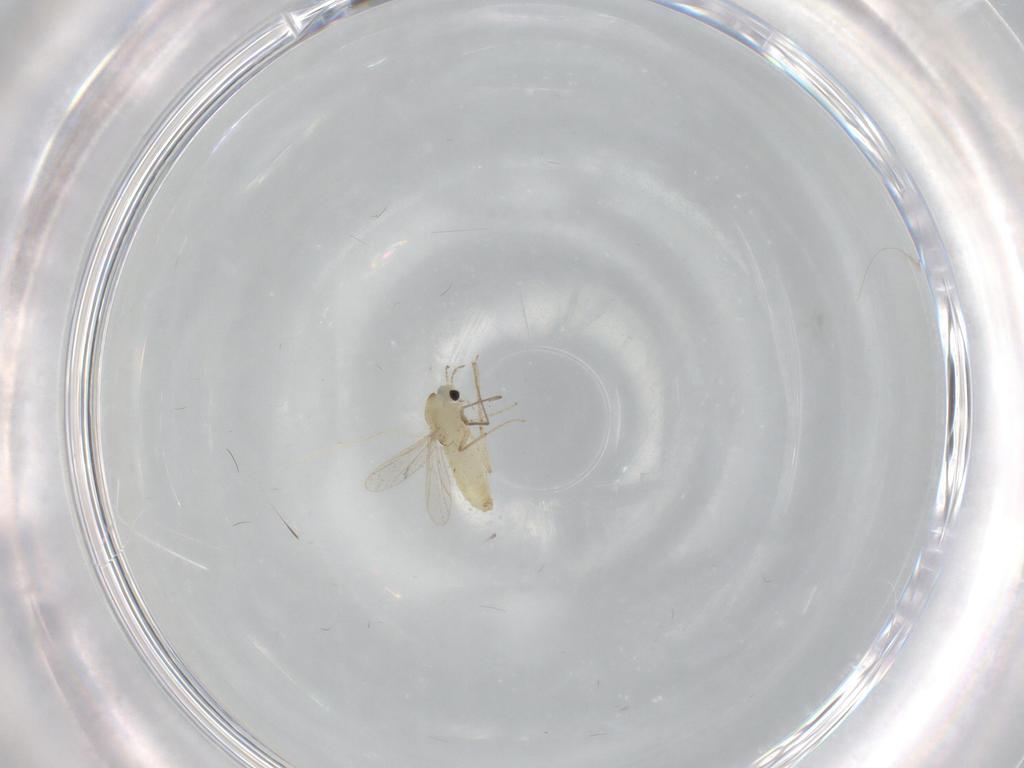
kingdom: Animalia
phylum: Arthropoda
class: Insecta
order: Diptera
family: Chironomidae
